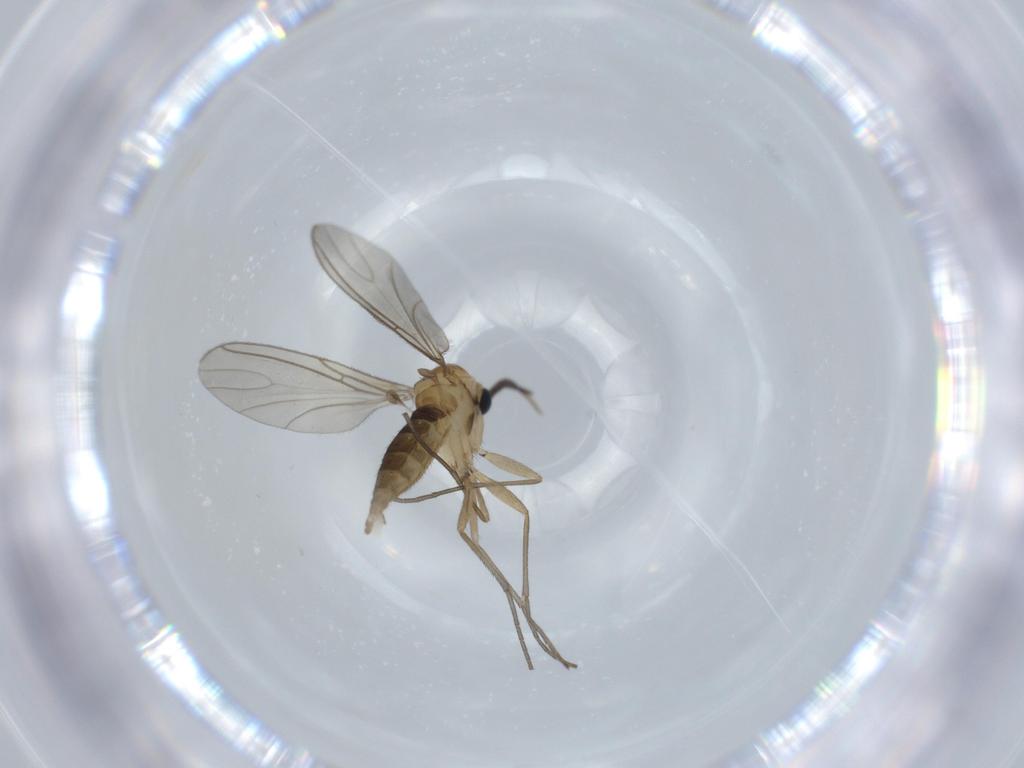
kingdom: Animalia
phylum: Arthropoda
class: Insecta
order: Diptera
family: Sciaridae
